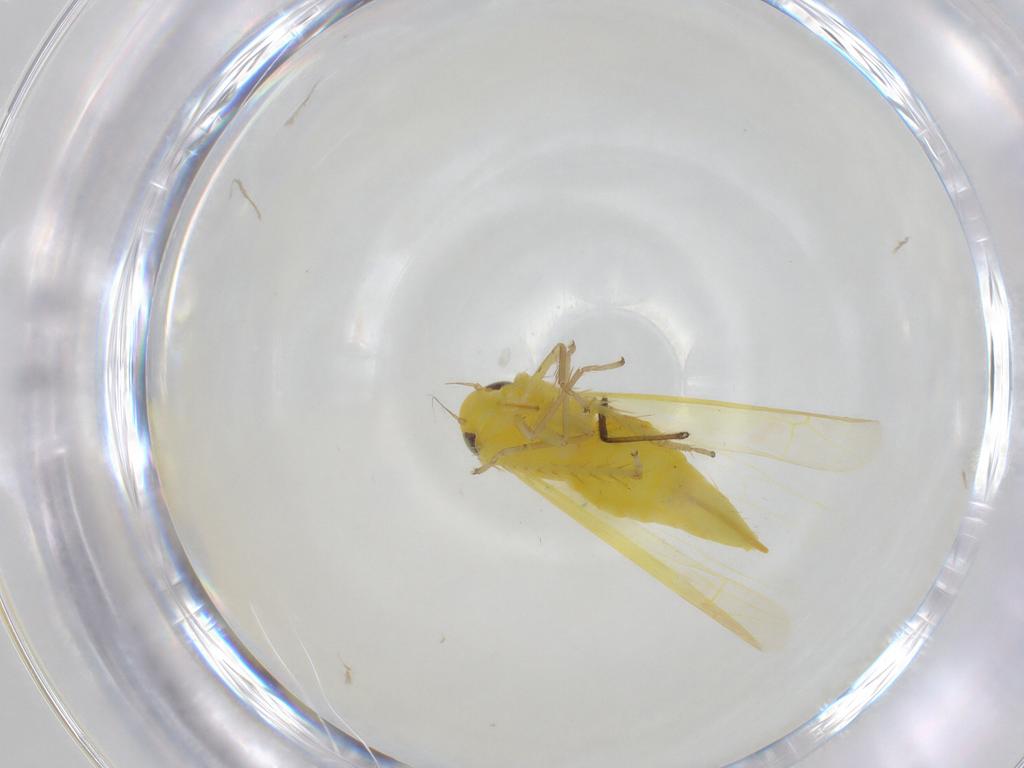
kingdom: Animalia
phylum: Arthropoda
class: Insecta
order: Hemiptera
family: Cicadellidae
